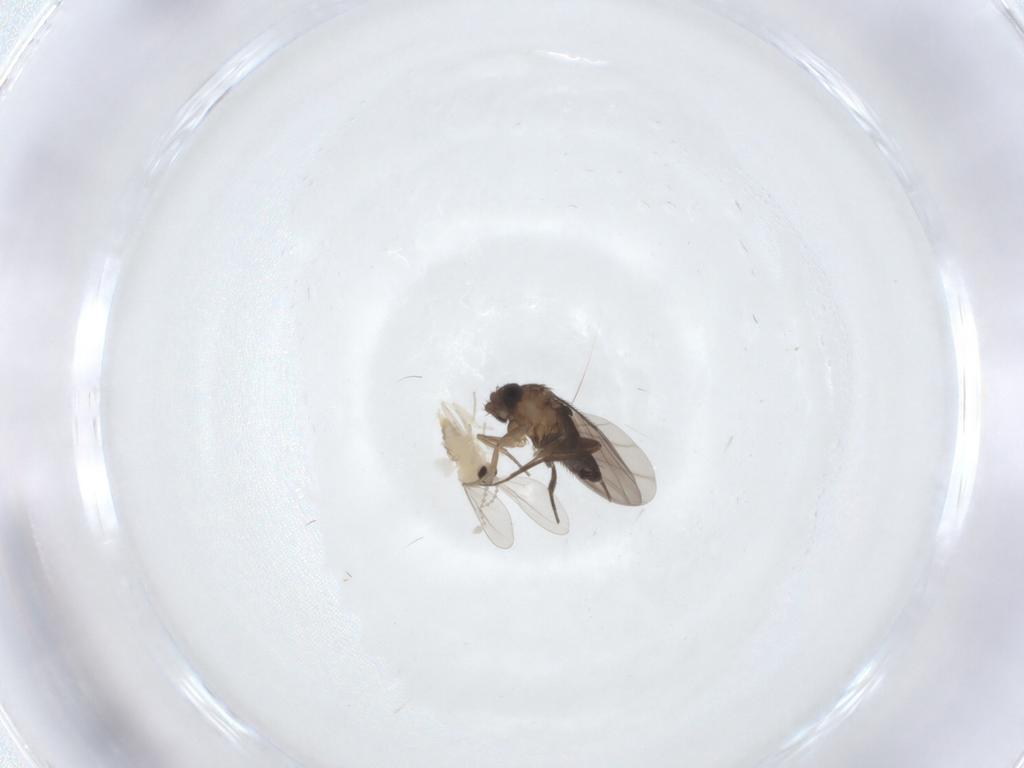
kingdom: Animalia
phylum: Arthropoda
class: Insecta
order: Diptera
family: Phoridae
